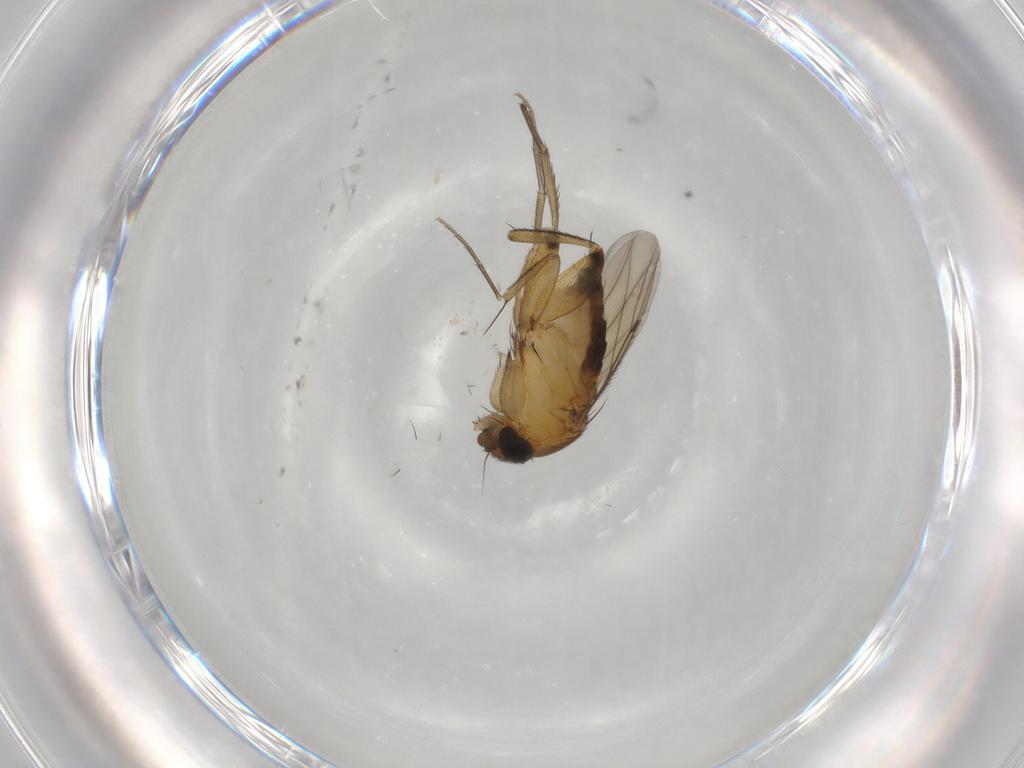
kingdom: Animalia
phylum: Arthropoda
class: Insecta
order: Diptera
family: Phoridae
